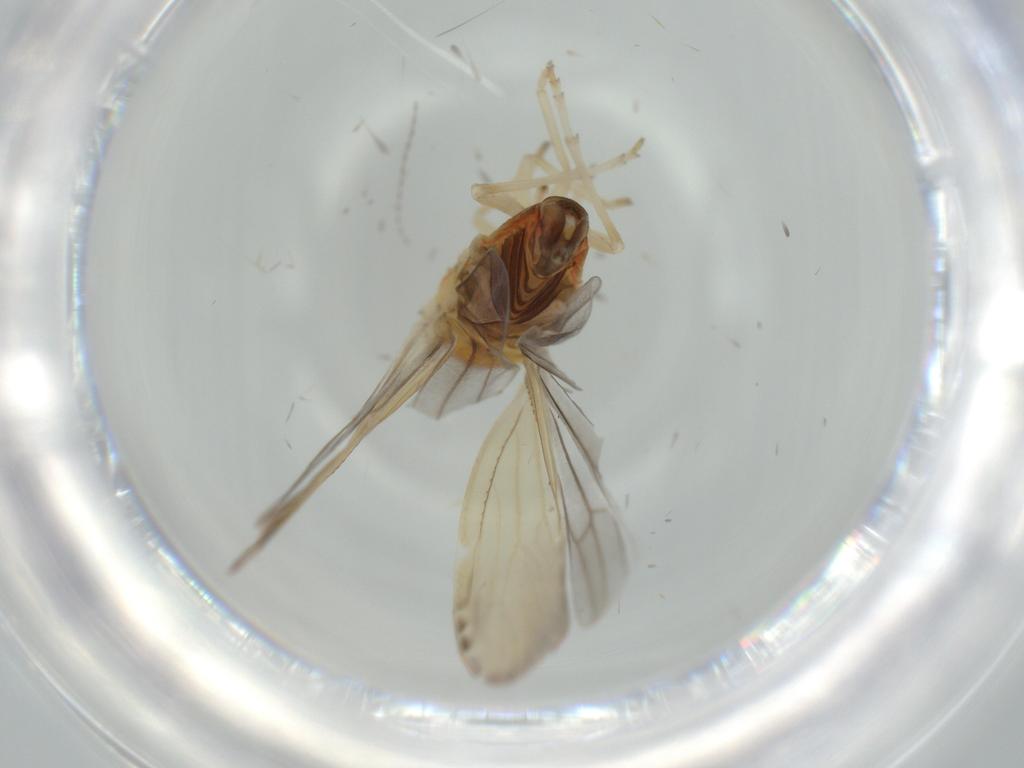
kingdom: Animalia
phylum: Arthropoda
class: Insecta
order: Hemiptera
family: Derbidae
